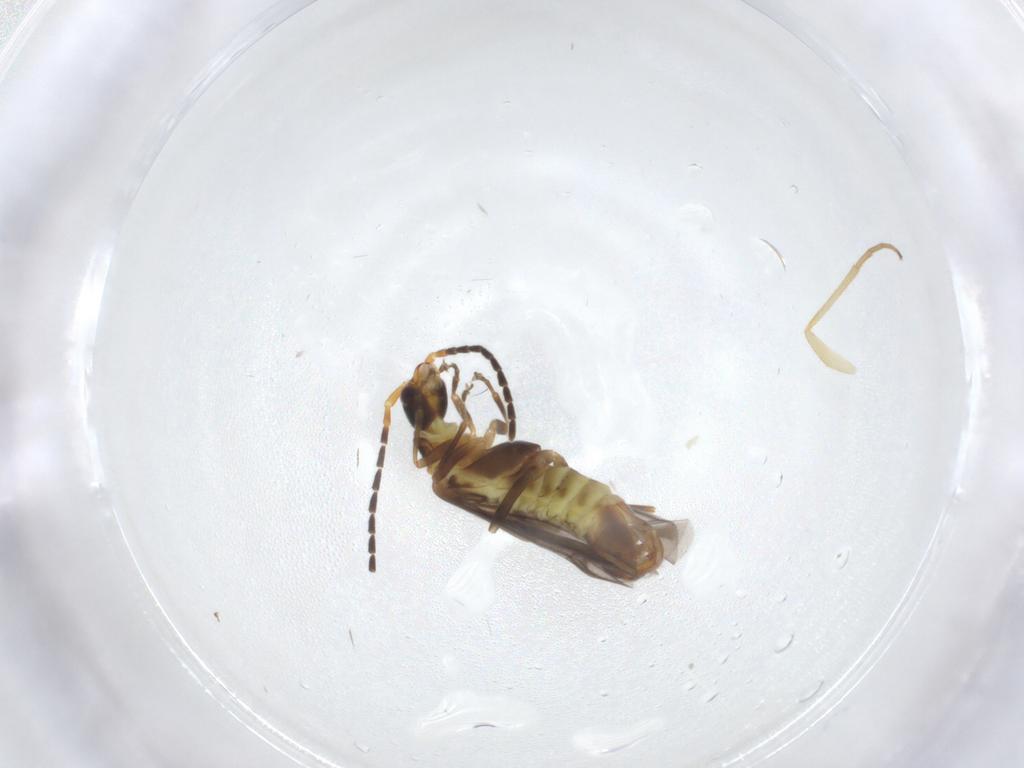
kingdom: Animalia
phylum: Arthropoda
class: Insecta
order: Coleoptera
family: Cantharidae
